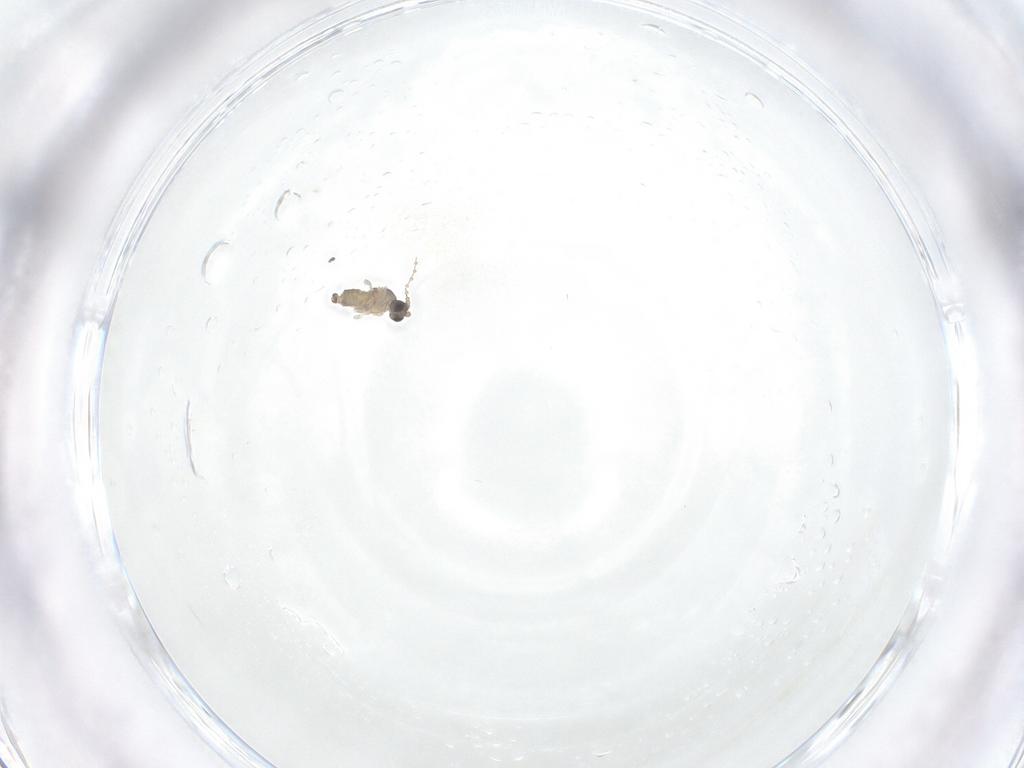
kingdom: Animalia
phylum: Arthropoda
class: Insecta
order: Diptera
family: Cecidomyiidae
